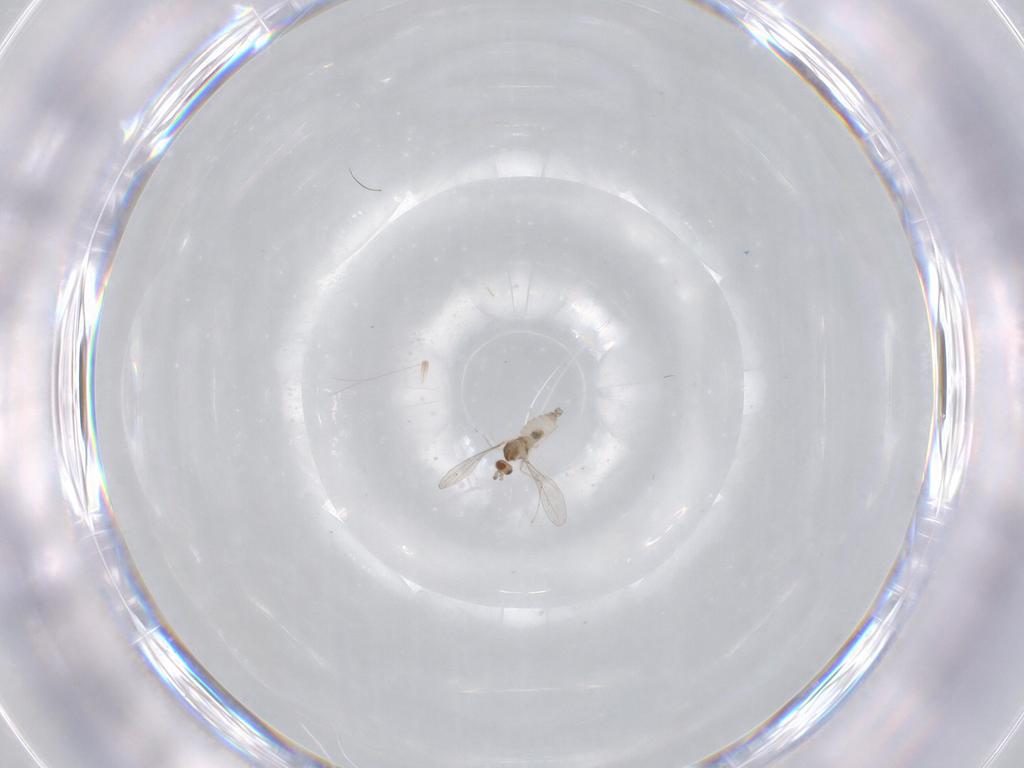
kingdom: Animalia
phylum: Arthropoda
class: Insecta
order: Diptera
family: Cecidomyiidae
